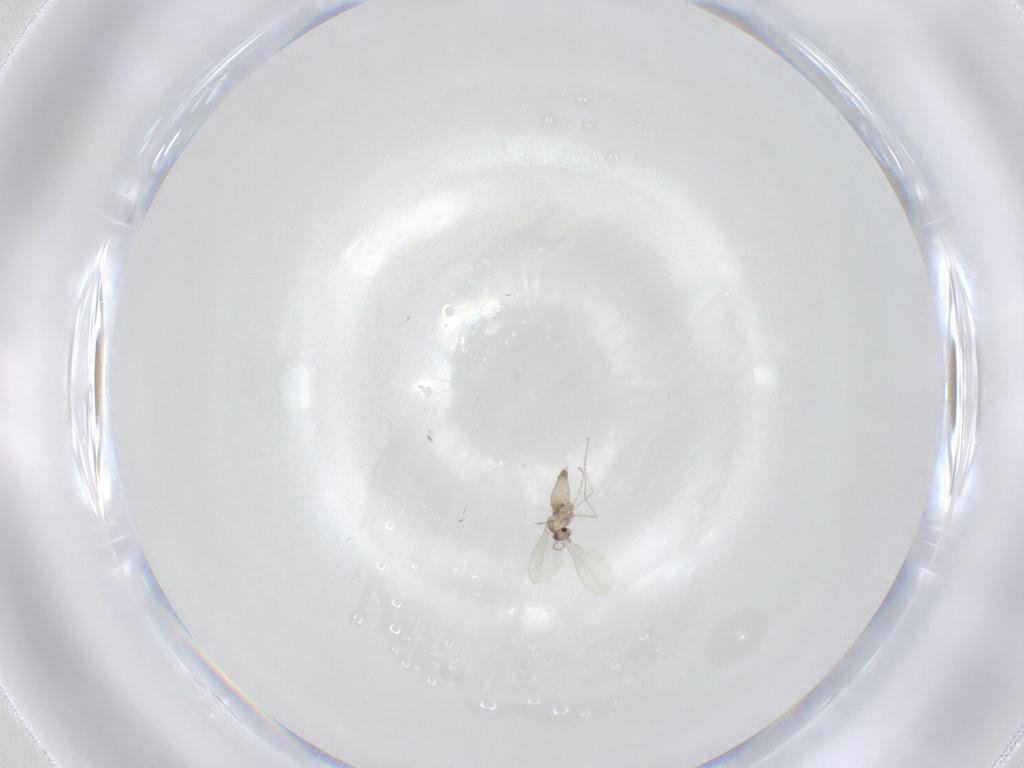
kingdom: Animalia
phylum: Arthropoda
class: Insecta
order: Diptera
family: Cecidomyiidae
